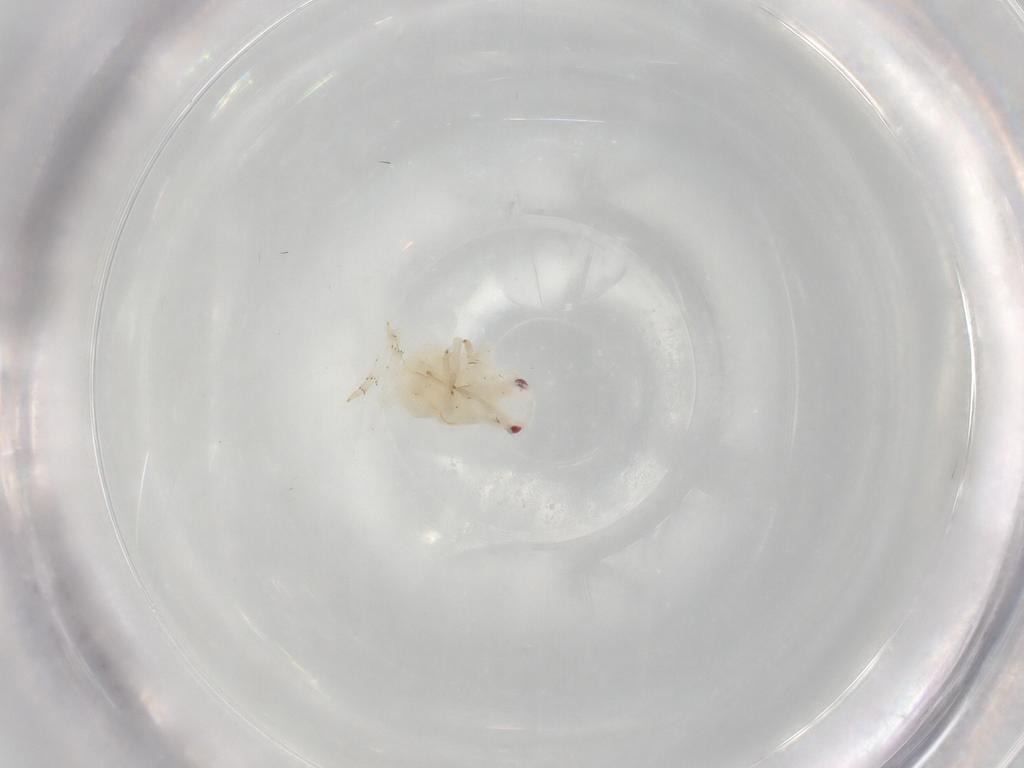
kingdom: Animalia
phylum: Arthropoda
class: Insecta
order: Hemiptera
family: Flatidae
